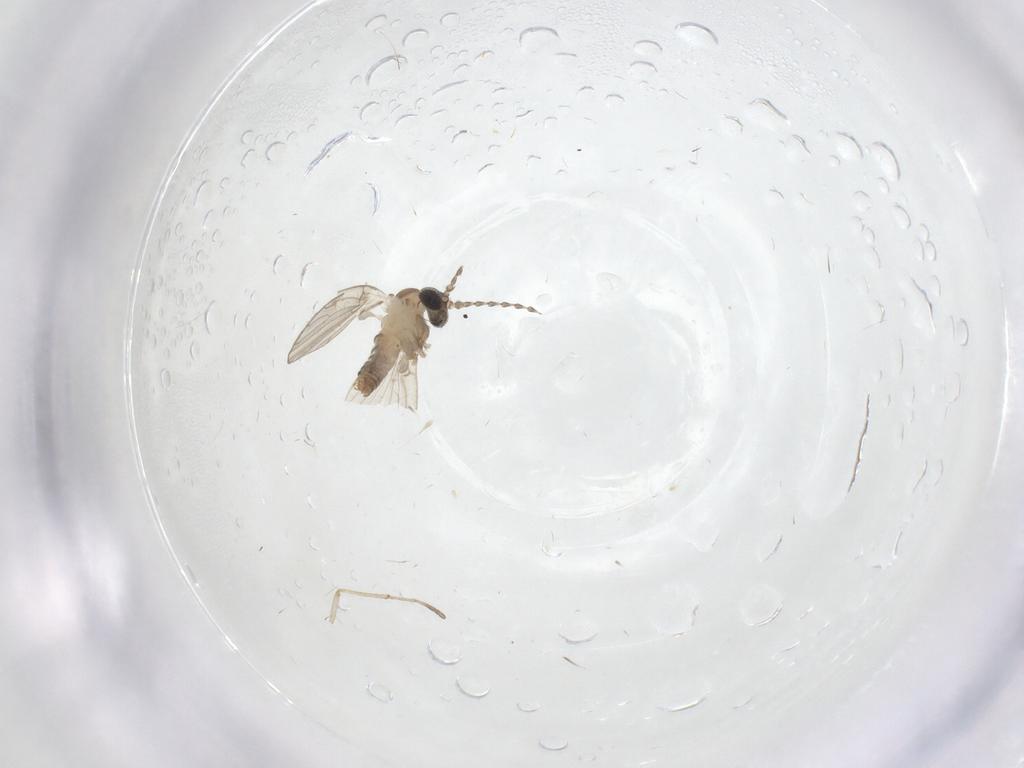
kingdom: Animalia
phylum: Arthropoda
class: Insecta
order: Diptera
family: Psychodidae
